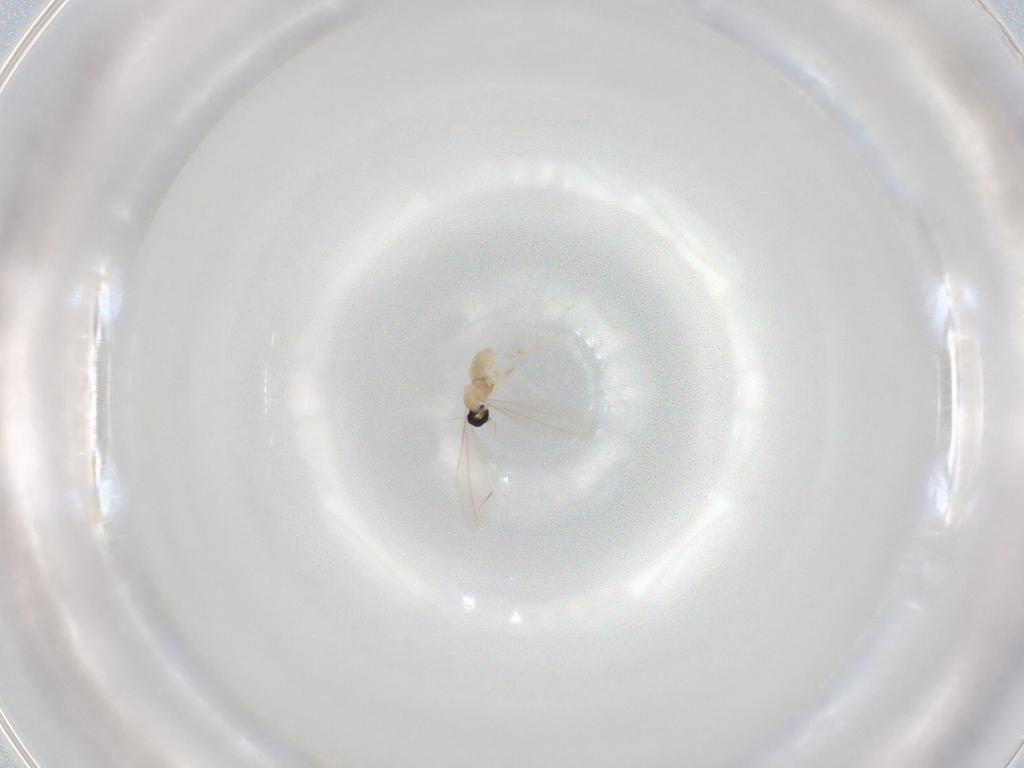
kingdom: Animalia
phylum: Arthropoda
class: Insecta
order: Diptera
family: Cecidomyiidae
